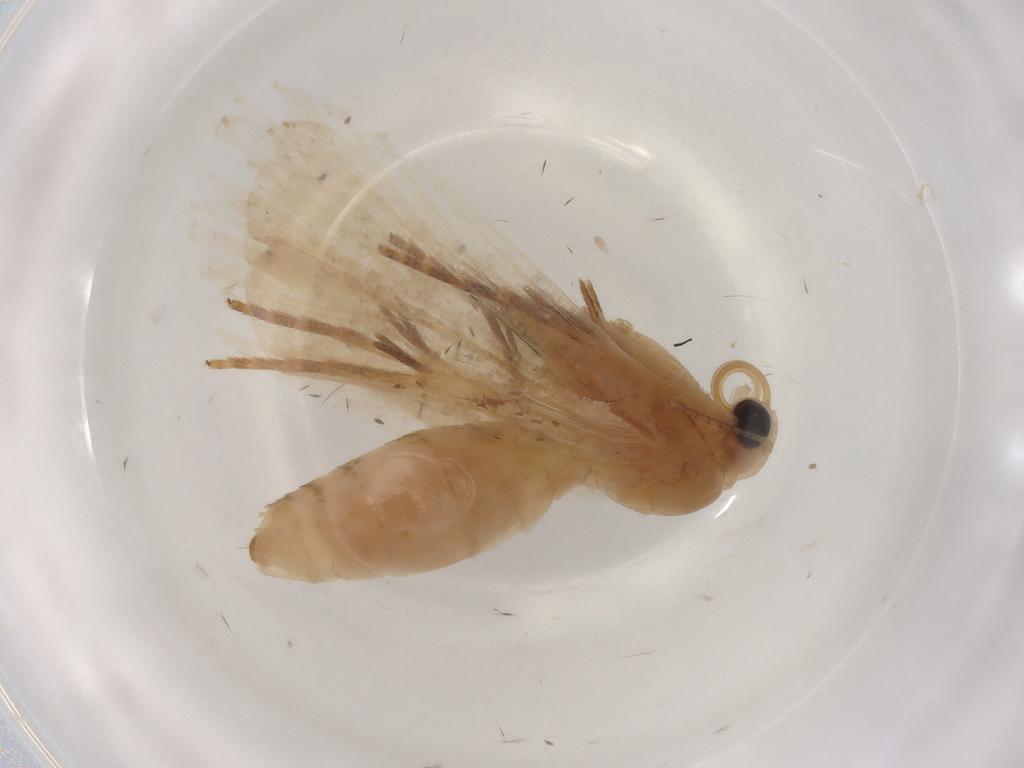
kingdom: Animalia
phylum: Arthropoda
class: Insecta
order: Lepidoptera
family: Erebidae
